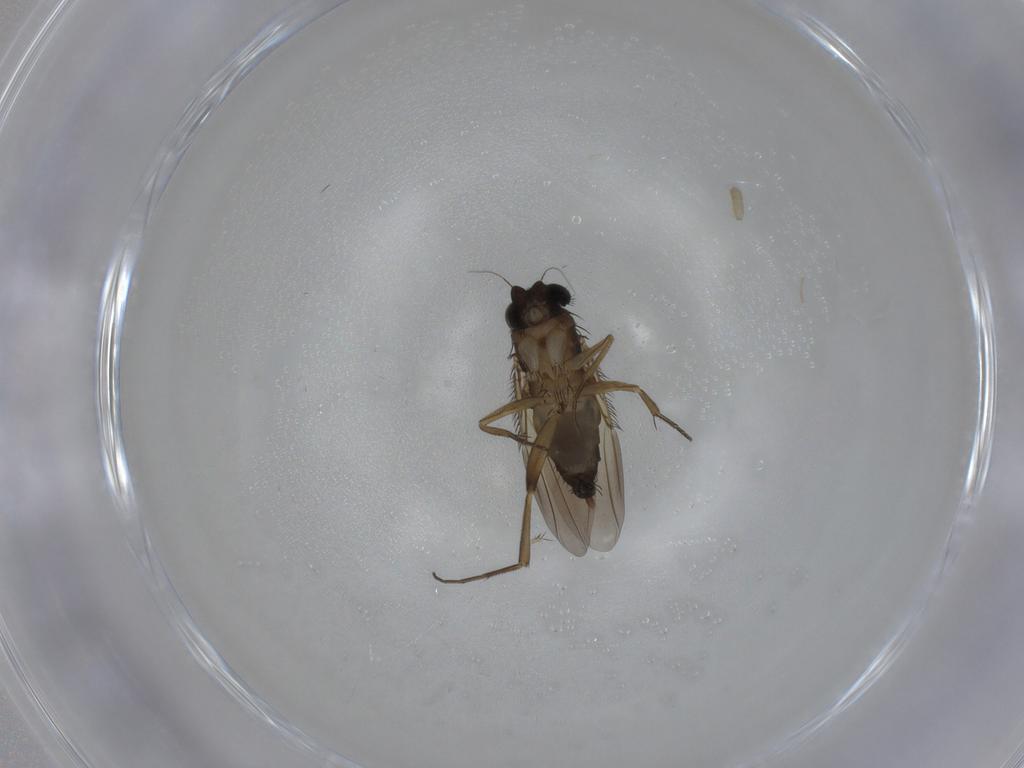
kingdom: Animalia
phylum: Arthropoda
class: Insecta
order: Diptera
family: Phoridae
